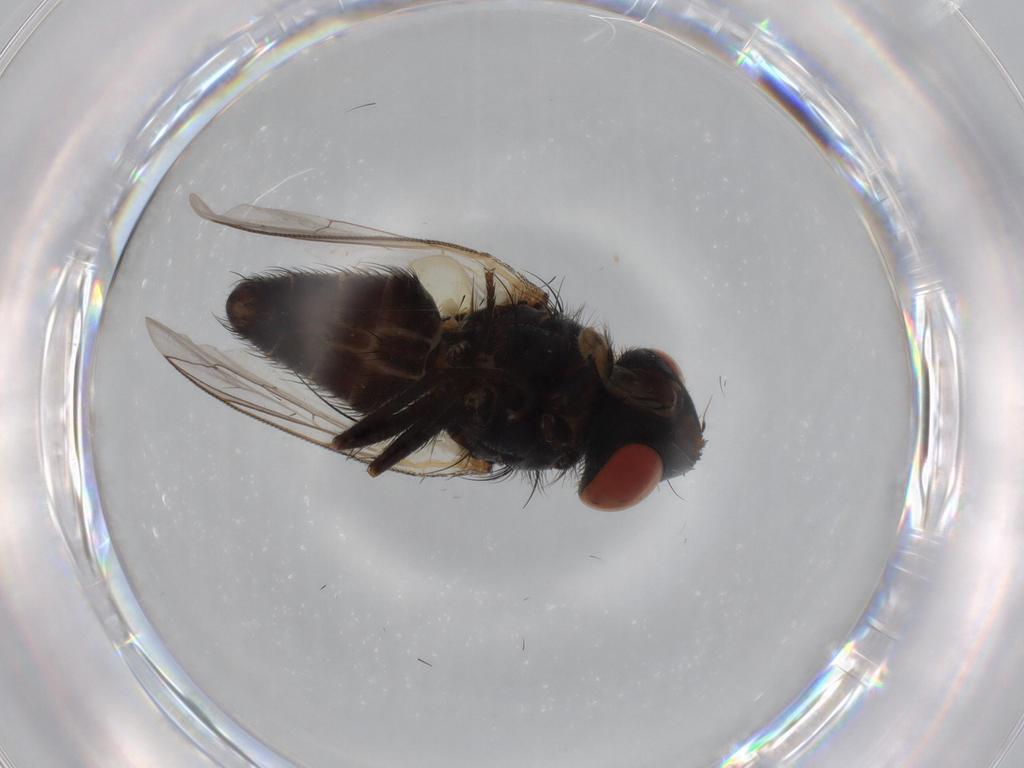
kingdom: Animalia
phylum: Arthropoda
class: Insecta
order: Diptera
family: Sarcophagidae
